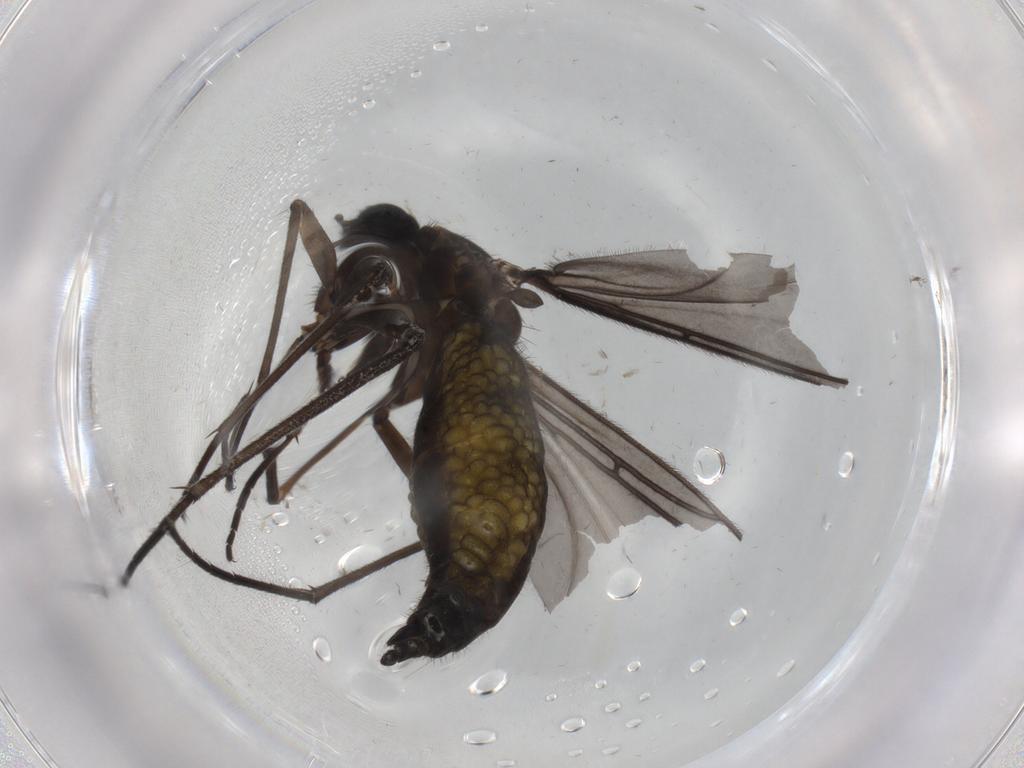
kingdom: Animalia
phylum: Arthropoda
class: Insecta
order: Diptera
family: Sciaridae
